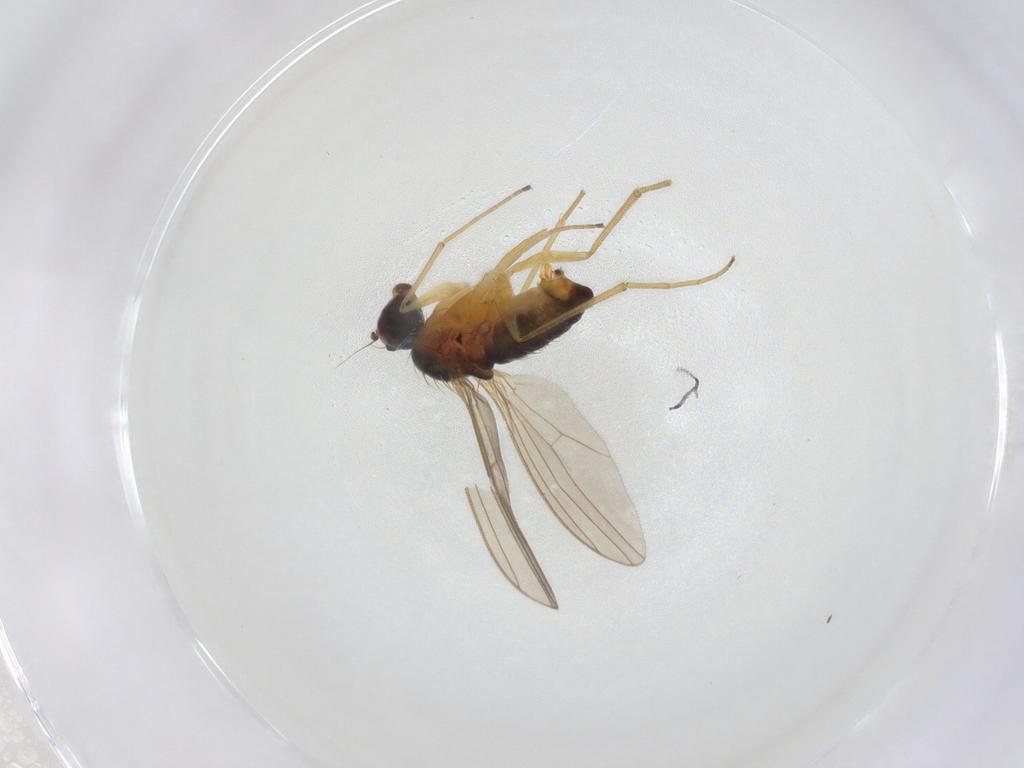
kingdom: Animalia
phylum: Arthropoda
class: Insecta
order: Diptera
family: Dolichopodidae
